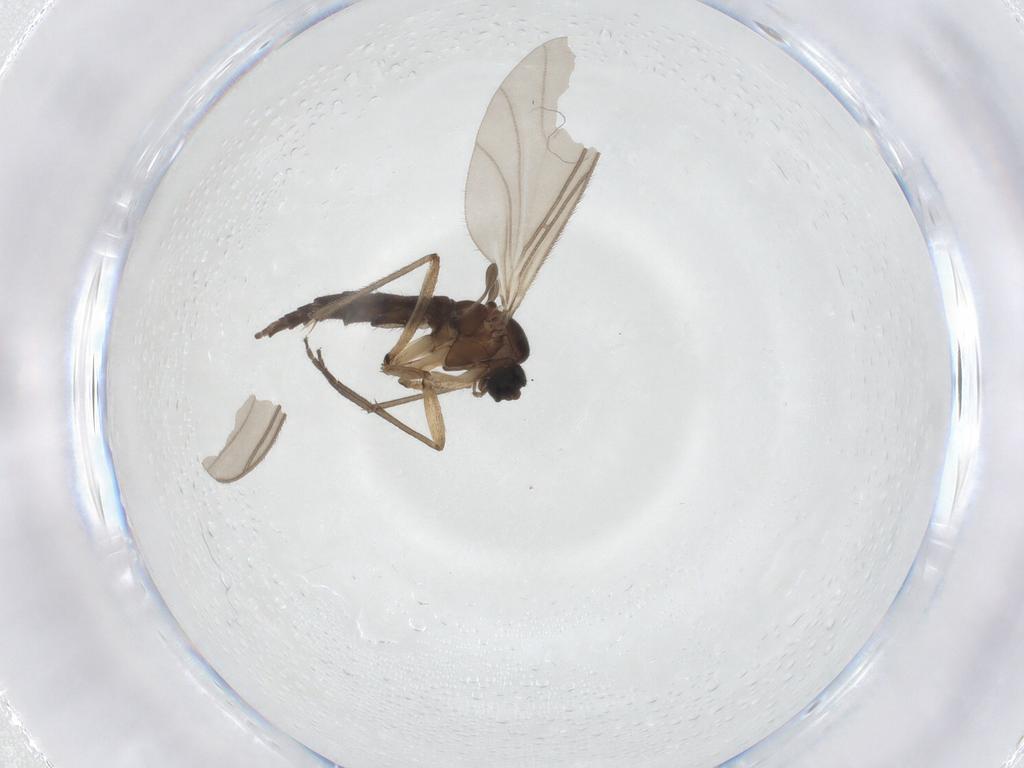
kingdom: Animalia
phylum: Arthropoda
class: Insecta
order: Diptera
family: Sciaridae
